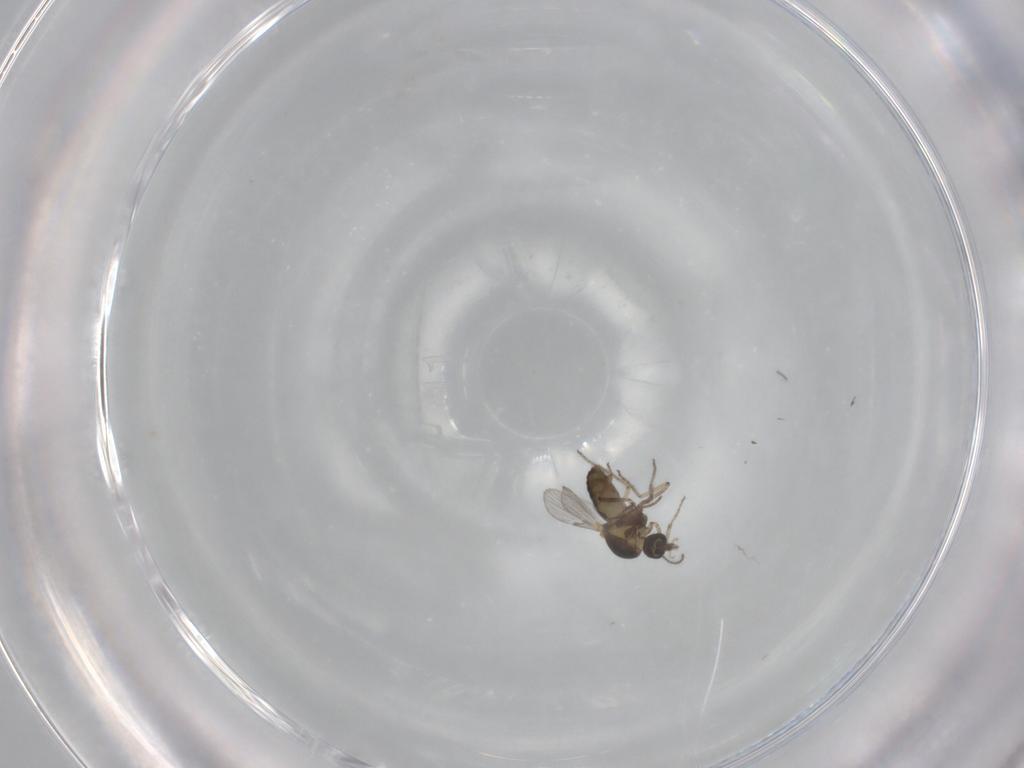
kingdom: Animalia
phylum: Arthropoda
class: Insecta
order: Diptera
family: Ceratopogonidae
